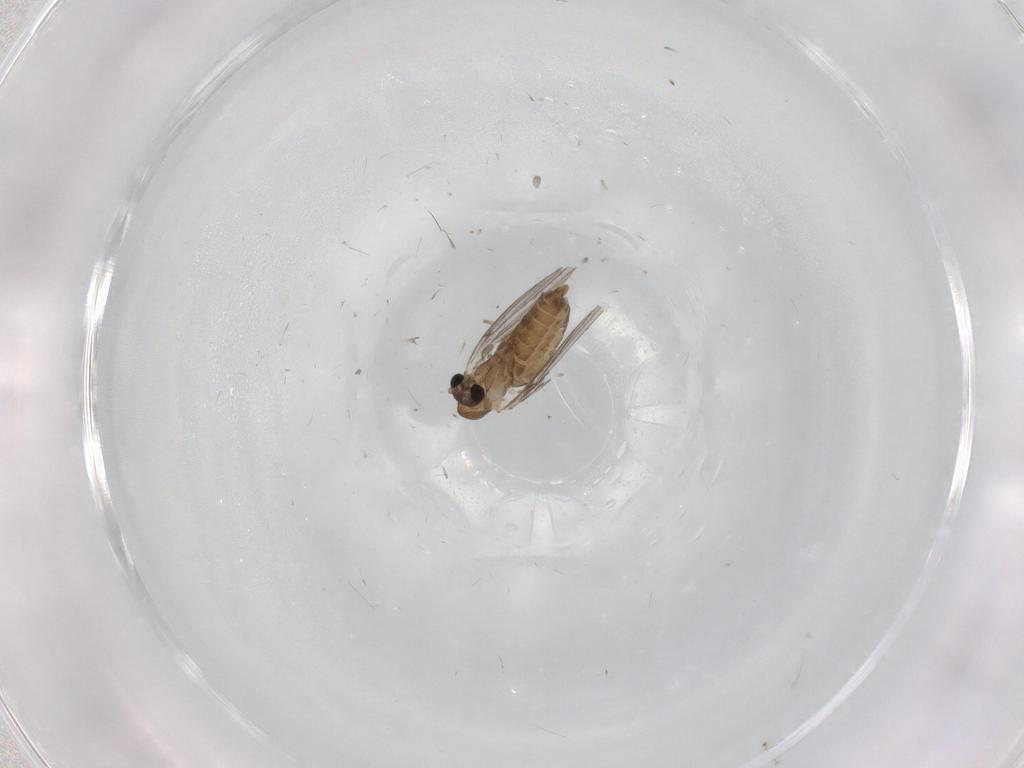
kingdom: Animalia
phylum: Arthropoda
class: Insecta
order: Diptera
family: Psychodidae
